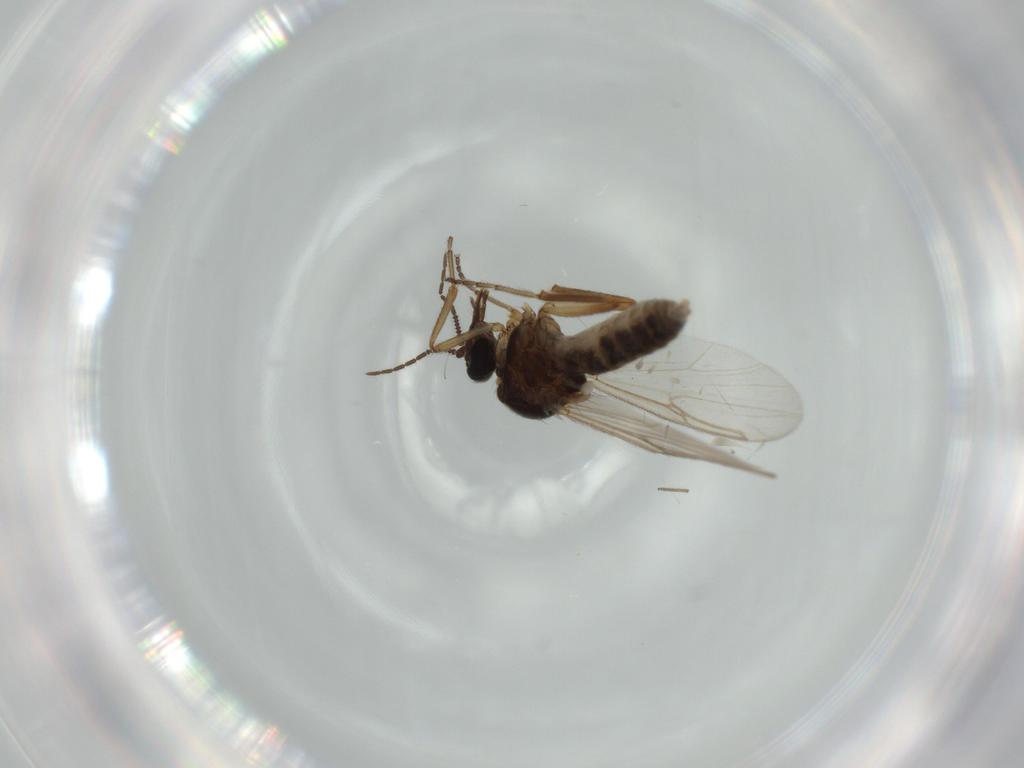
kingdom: Animalia
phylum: Arthropoda
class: Insecta
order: Diptera
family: Ceratopogonidae
